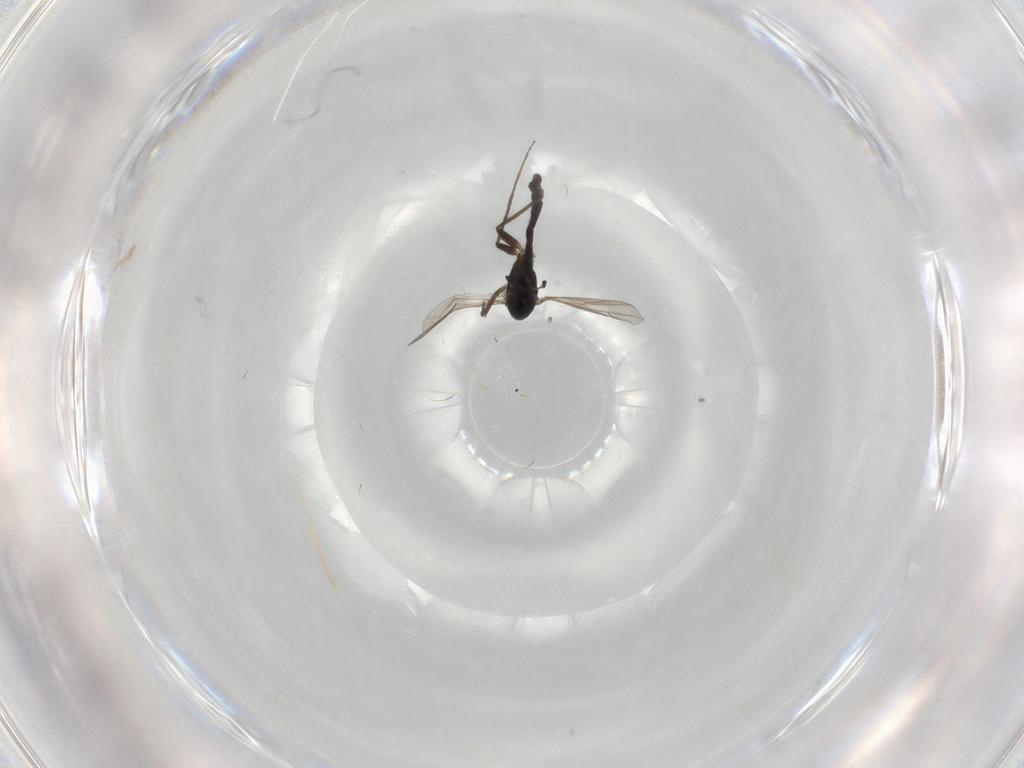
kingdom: Animalia
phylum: Arthropoda
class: Insecta
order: Diptera
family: Chironomidae
